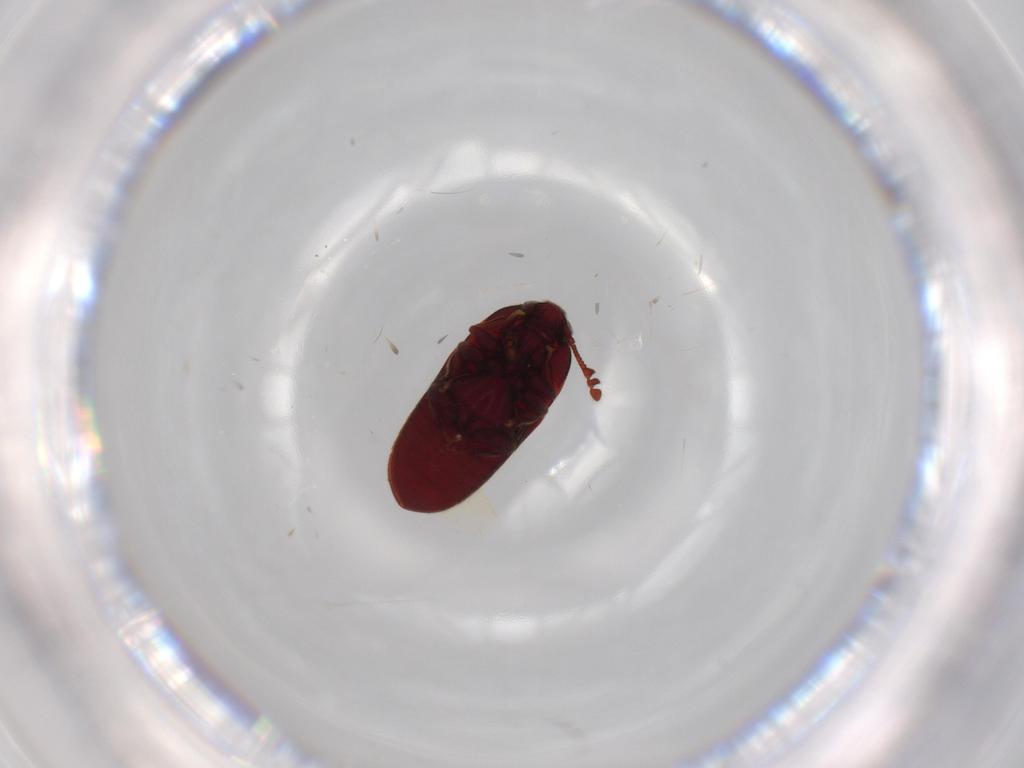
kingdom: Animalia
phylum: Arthropoda
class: Insecta
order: Coleoptera
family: Throscidae
